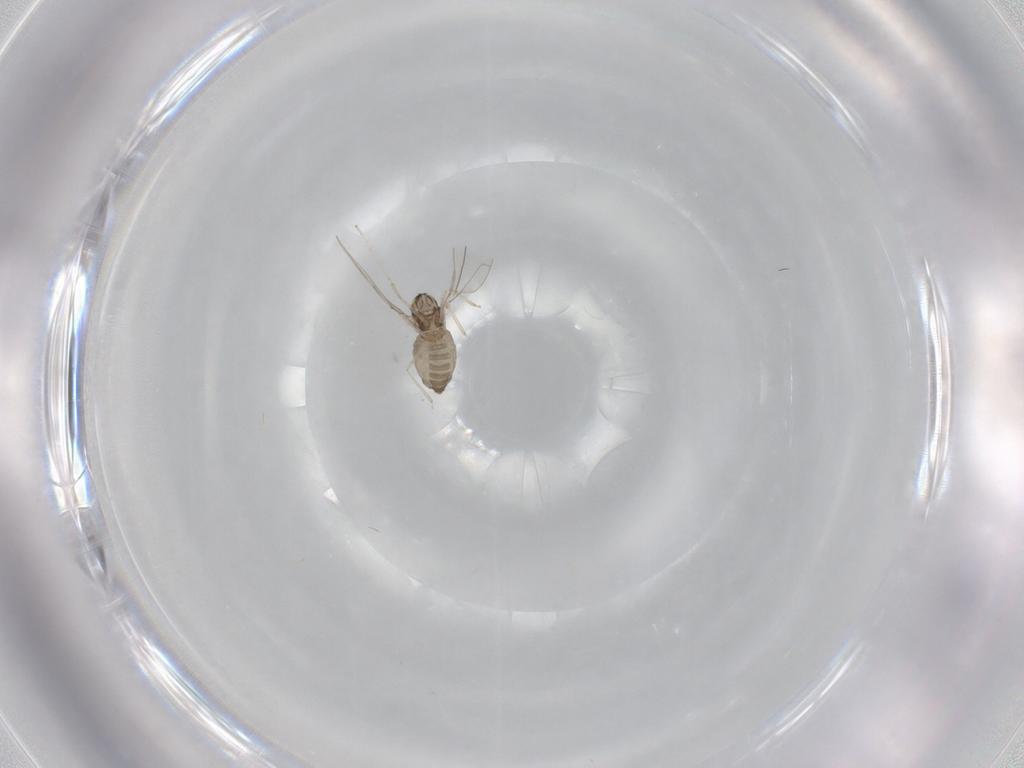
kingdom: Animalia
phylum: Arthropoda
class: Insecta
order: Diptera
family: Cecidomyiidae
